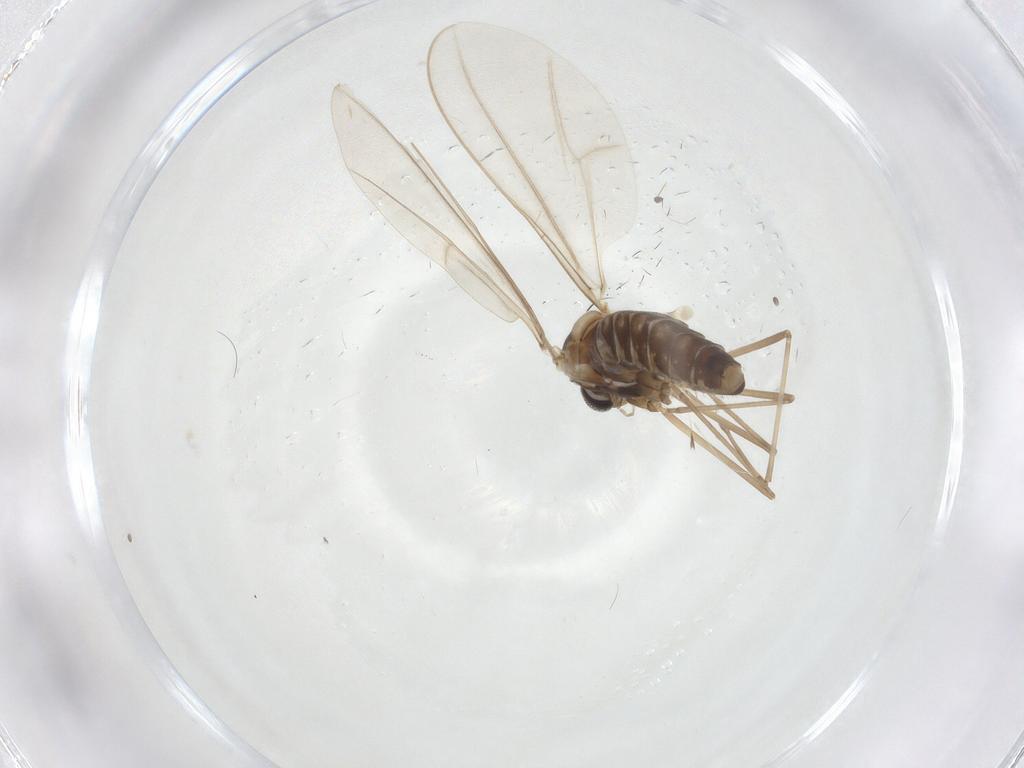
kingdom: Animalia
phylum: Arthropoda
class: Insecta
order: Diptera
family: Cecidomyiidae
